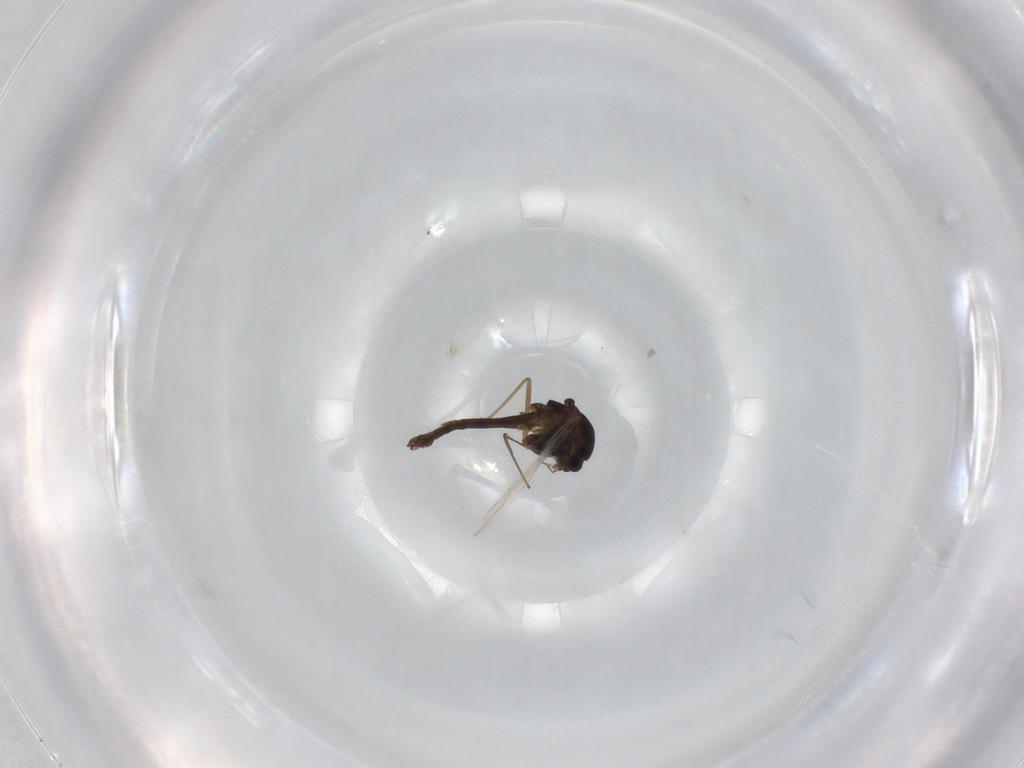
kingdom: Animalia
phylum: Arthropoda
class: Insecta
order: Diptera
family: Chironomidae
